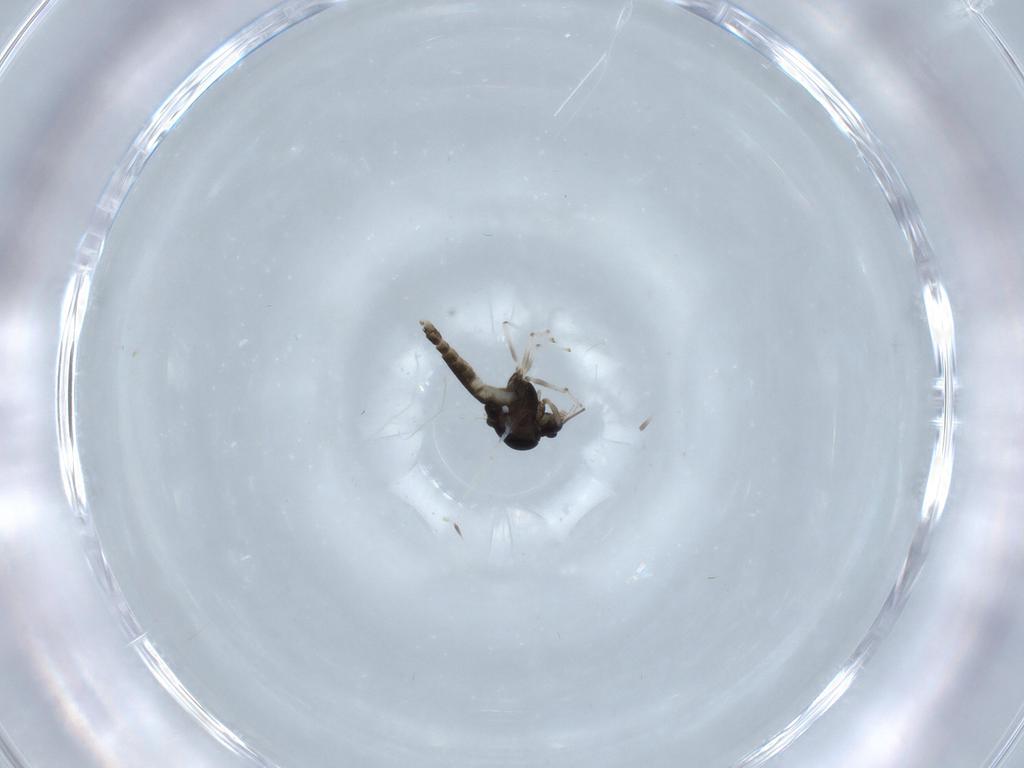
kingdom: Animalia
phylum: Arthropoda
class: Insecta
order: Diptera
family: Chironomidae
